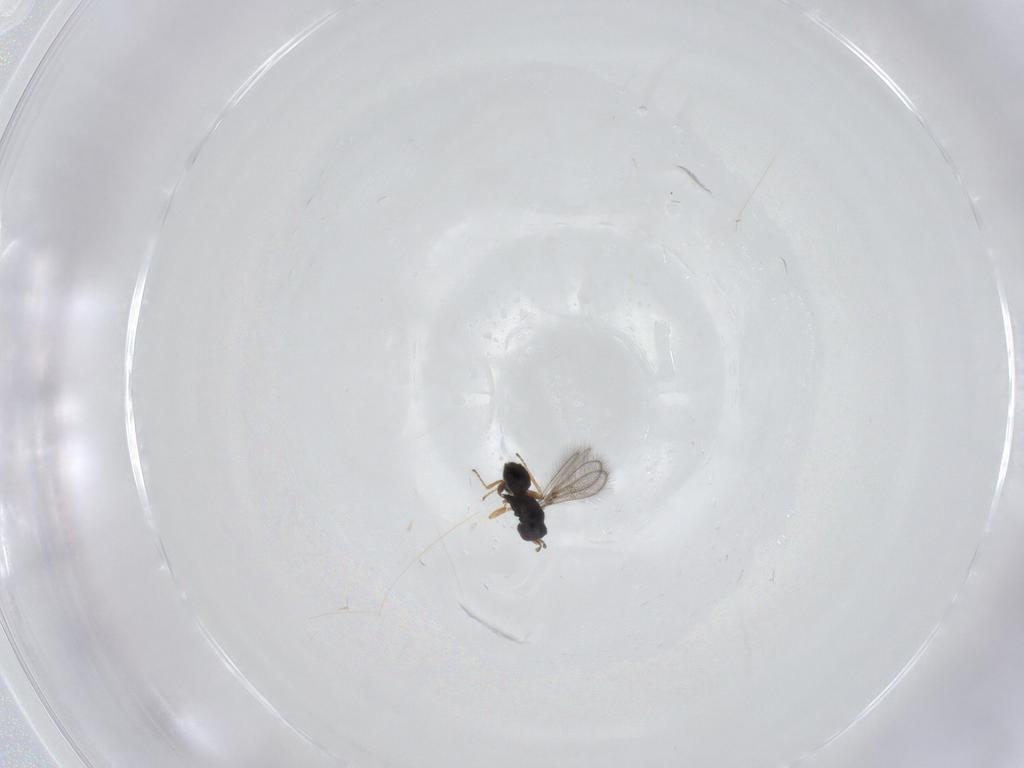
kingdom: Animalia
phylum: Arthropoda
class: Insecta
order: Hymenoptera
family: Mymaridae
